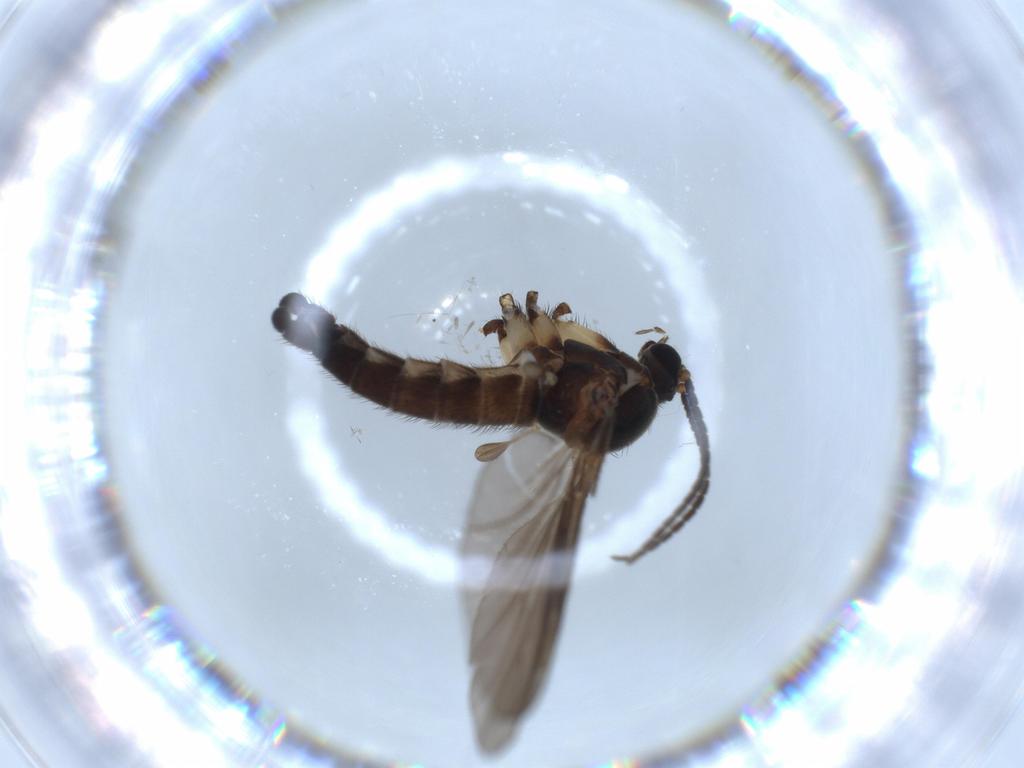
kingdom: Animalia
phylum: Arthropoda
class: Insecta
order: Diptera
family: Sciaridae
